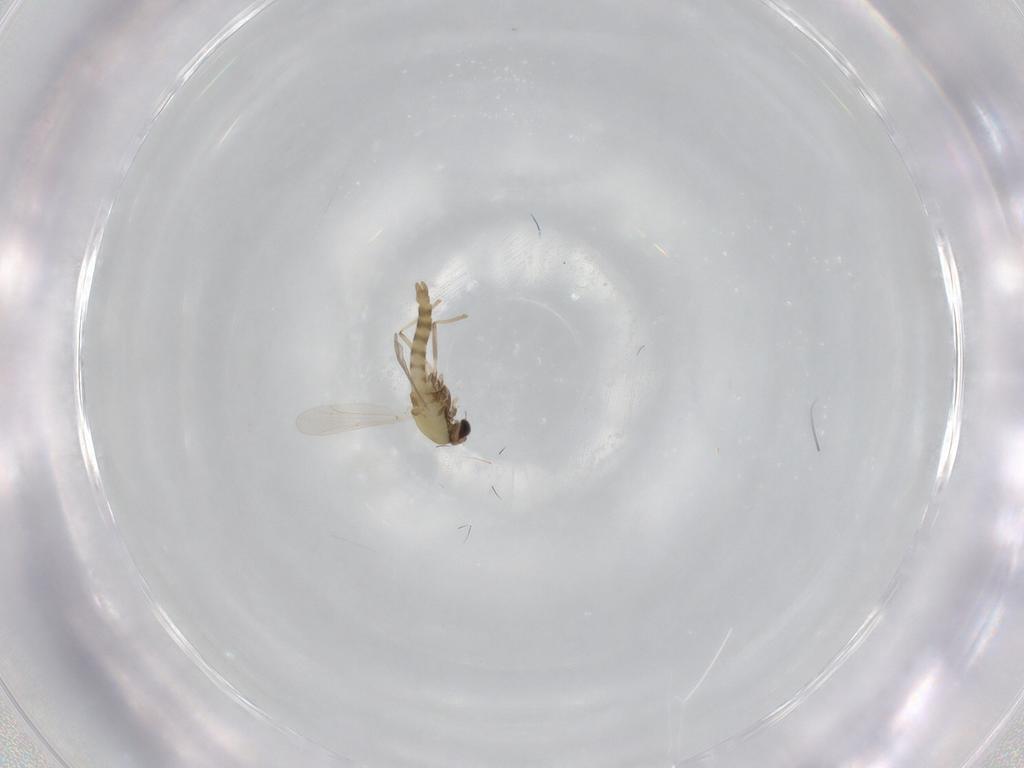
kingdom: Animalia
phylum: Arthropoda
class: Insecta
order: Diptera
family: Chironomidae
